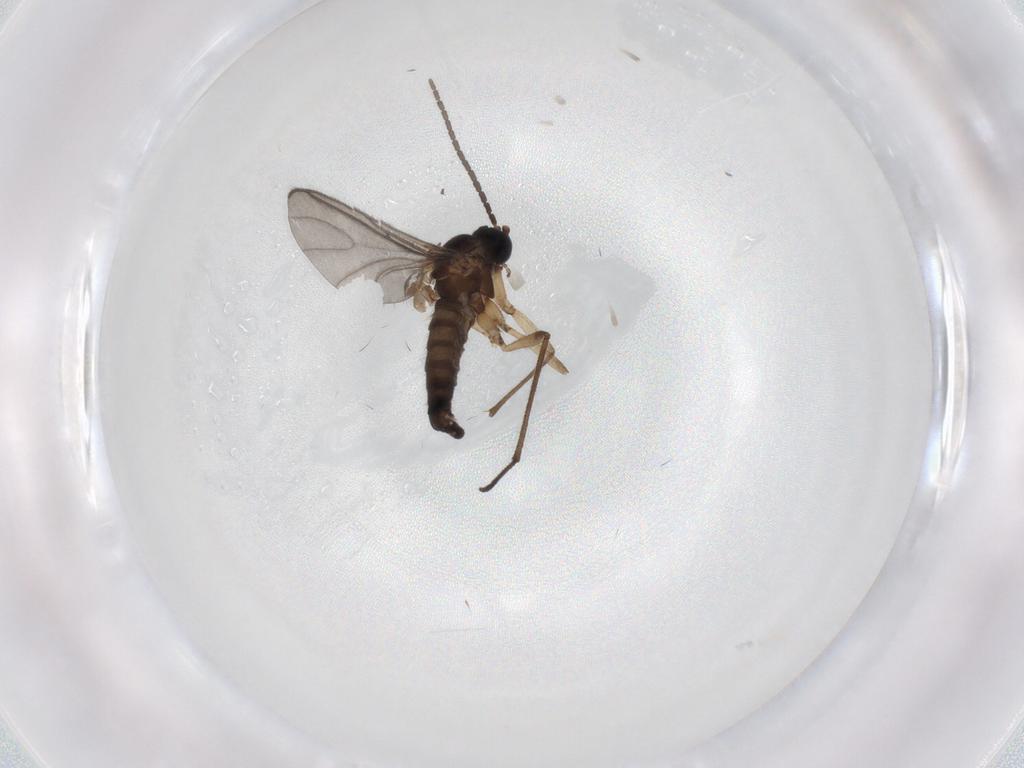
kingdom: Animalia
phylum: Arthropoda
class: Insecta
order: Diptera
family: Sciaridae
